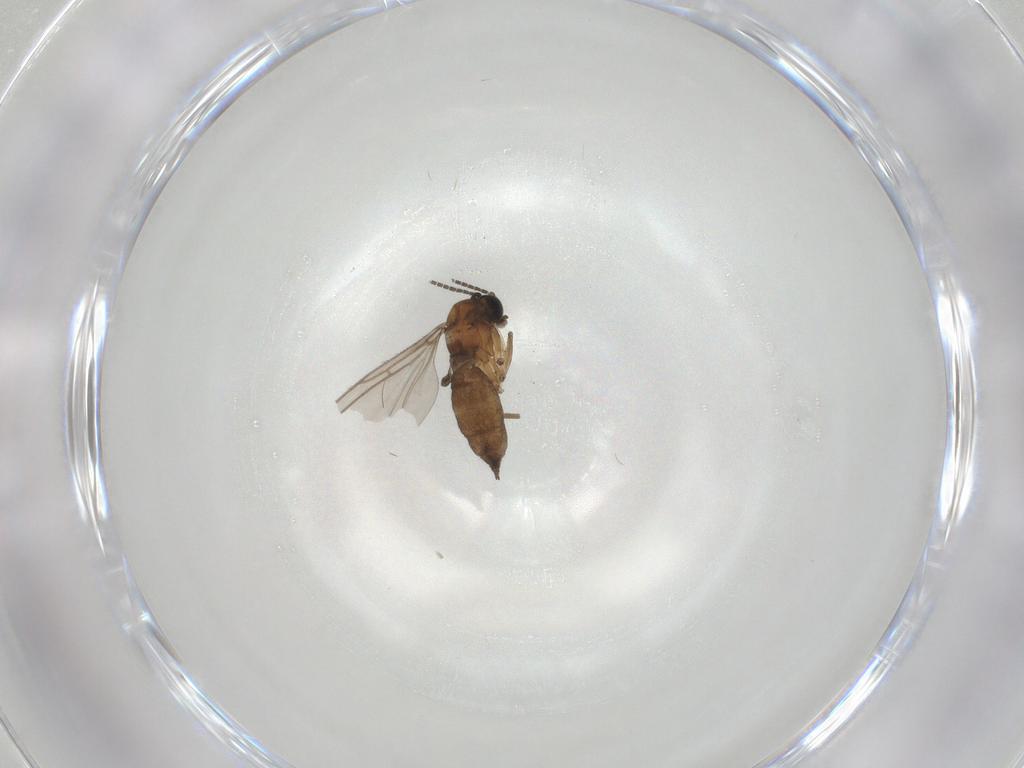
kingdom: Animalia
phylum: Arthropoda
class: Insecta
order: Diptera
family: Sciaridae
